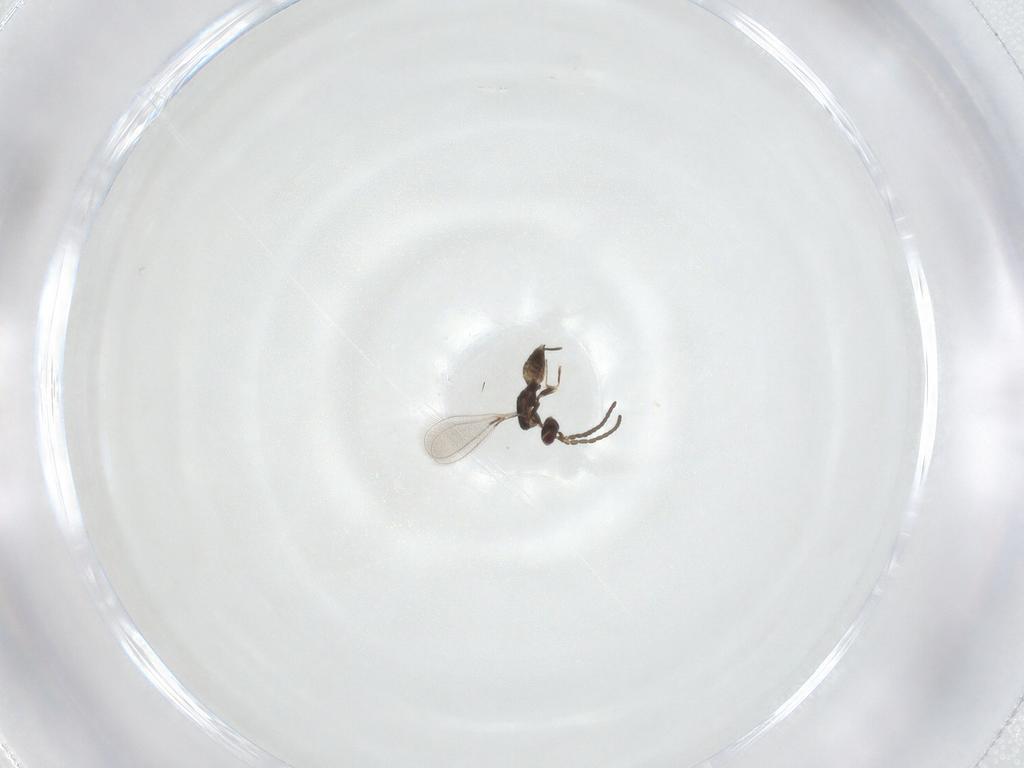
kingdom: Animalia
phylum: Arthropoda
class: Insecta
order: Hymenoptera
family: Mymaridae
